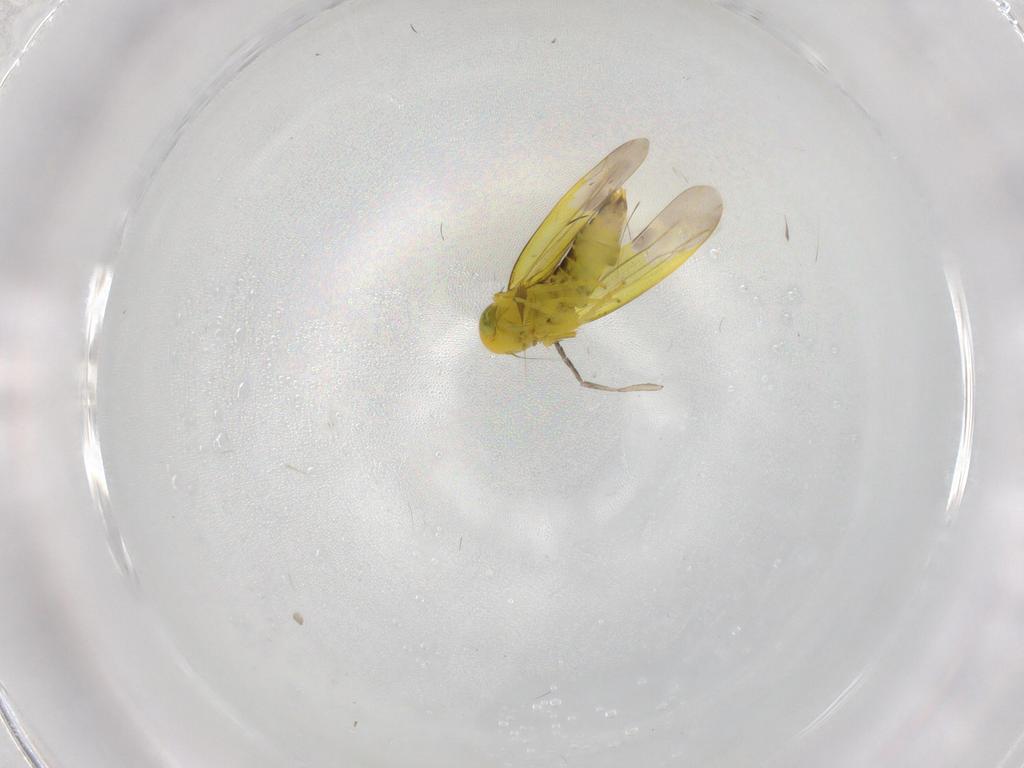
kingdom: Animalia
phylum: Arthropoda
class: Insecta
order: Hemiptera
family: Cicadellidae
